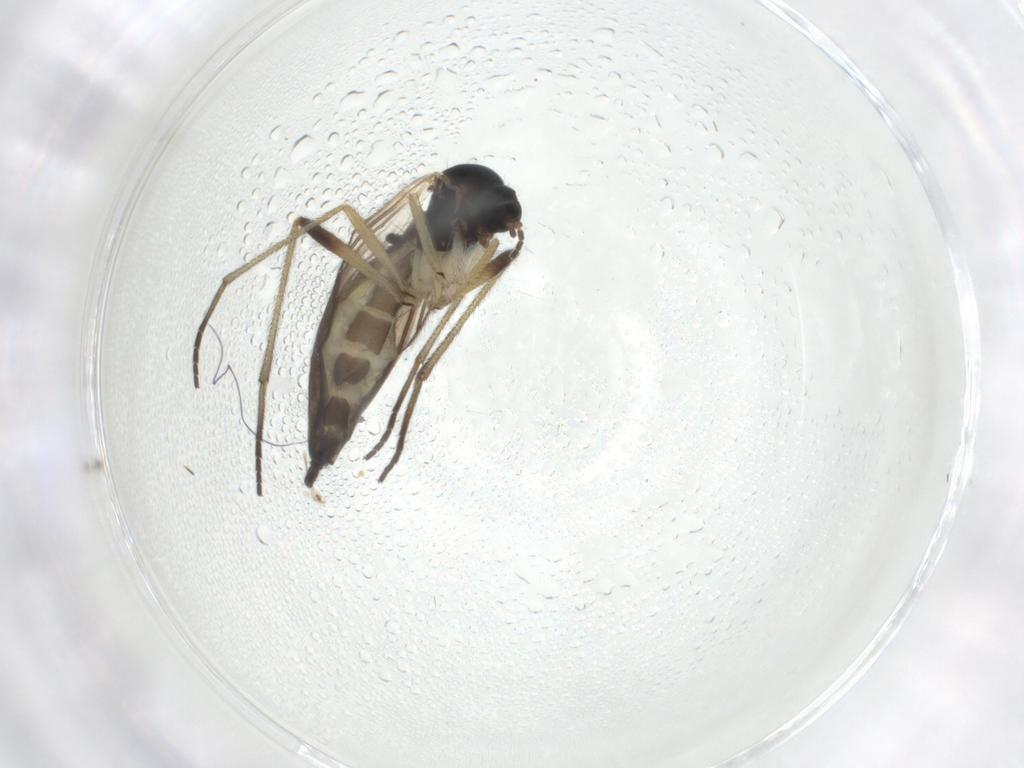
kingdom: Animalia
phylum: Arthropoda
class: Insecta
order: Diptera
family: Sciaridae
